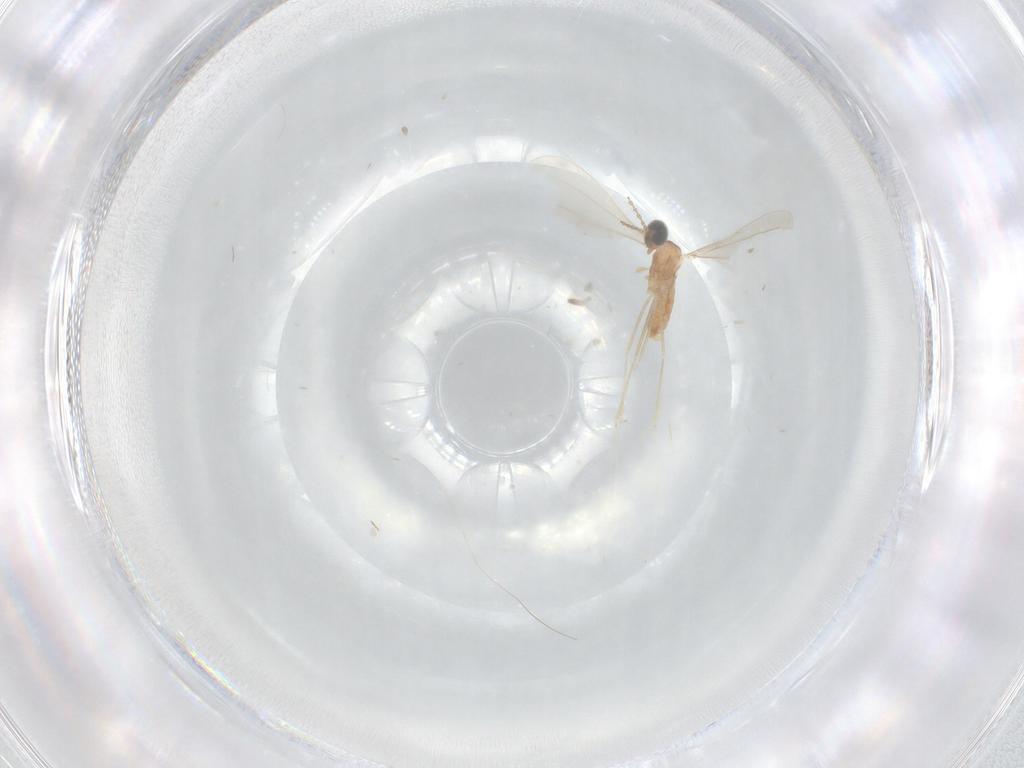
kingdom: Animalia
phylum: Arthropoda
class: Insecta
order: Diptera
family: Cecidomyiidae
